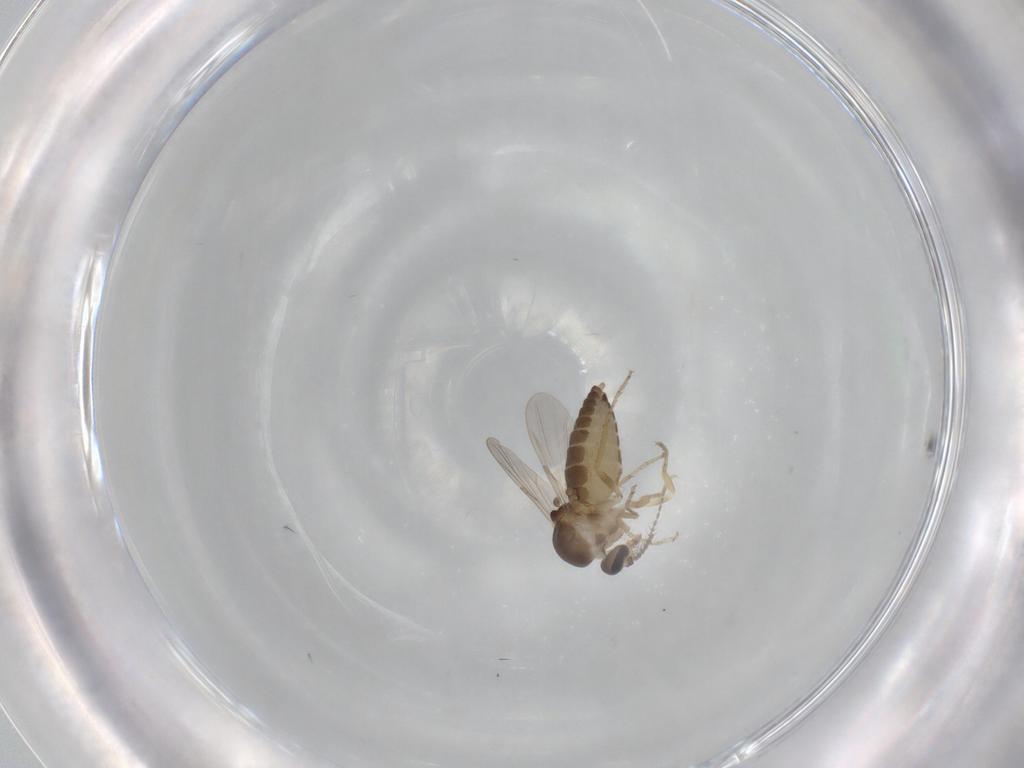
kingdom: Animalia
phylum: Arthropoda
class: Insecta
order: Diptera
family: Ceratopogonidae
